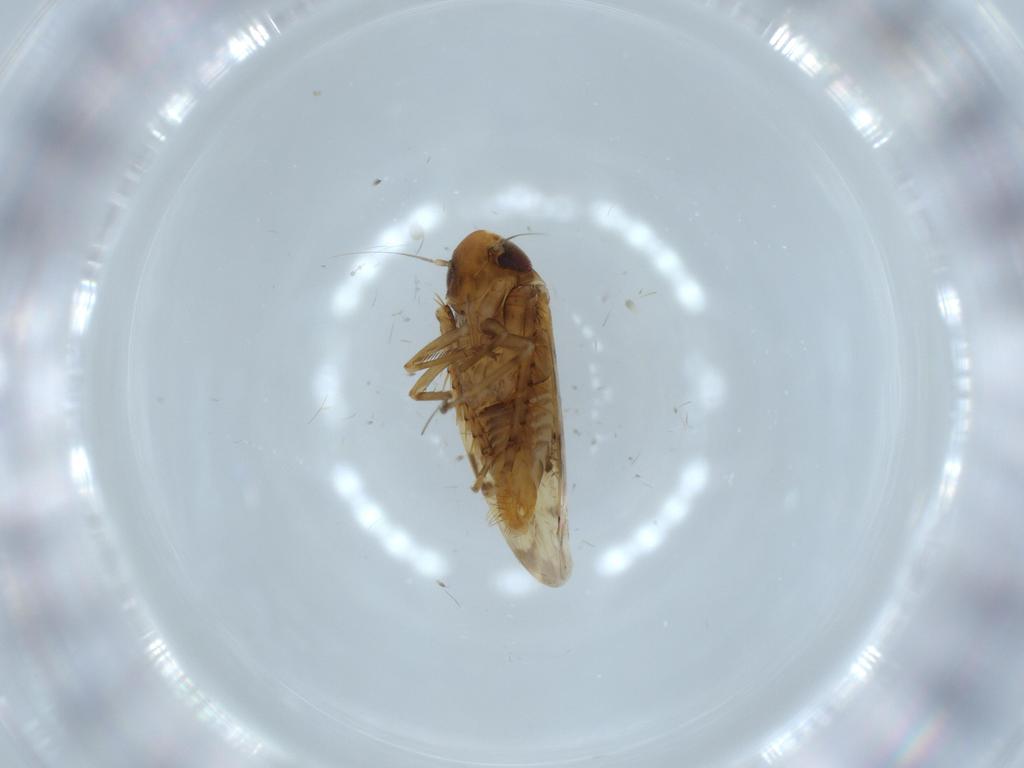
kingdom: Animalia
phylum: Arthropoda
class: Insecta
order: Hemiptera
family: Cicadellidae
